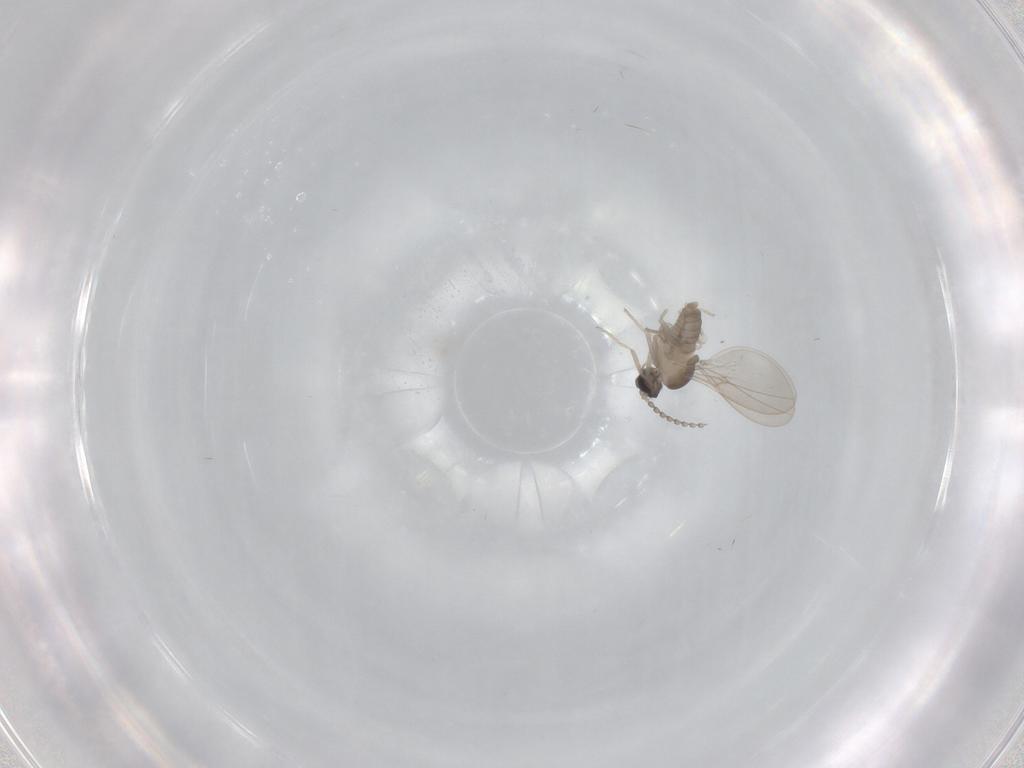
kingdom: Animalia
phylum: Arthropoda
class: Insecta
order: Diptera
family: Cecidomyiidae
